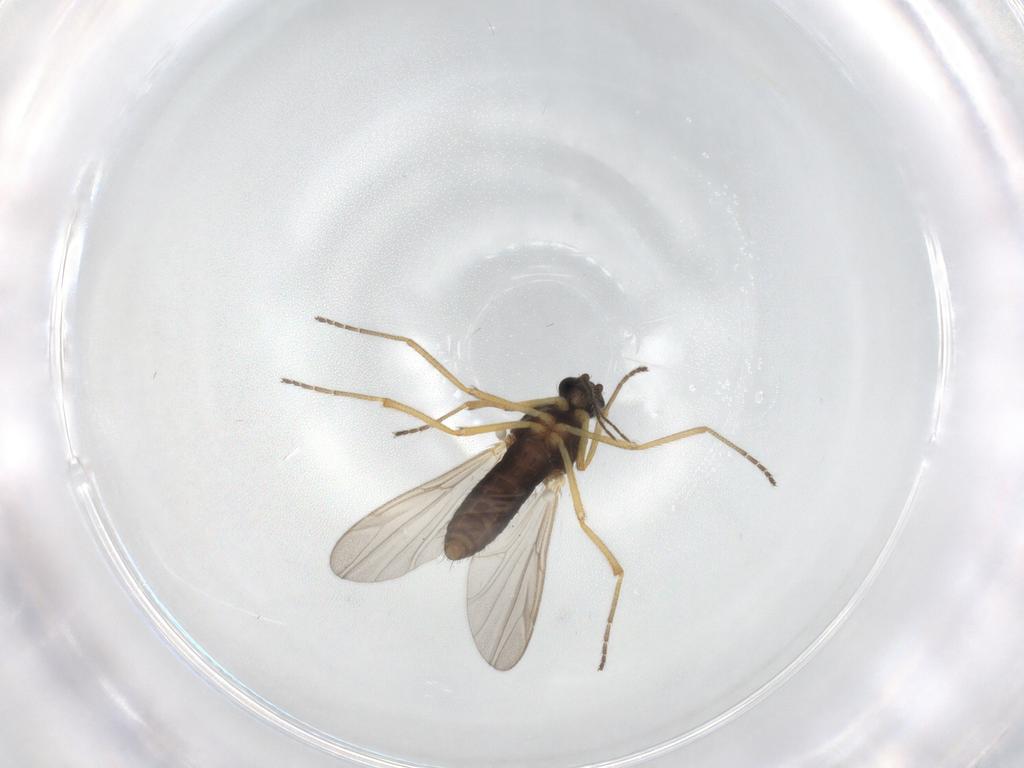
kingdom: Animalia
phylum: Arthropoda
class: Insecta
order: Diptera
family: Ceratopogonidae
